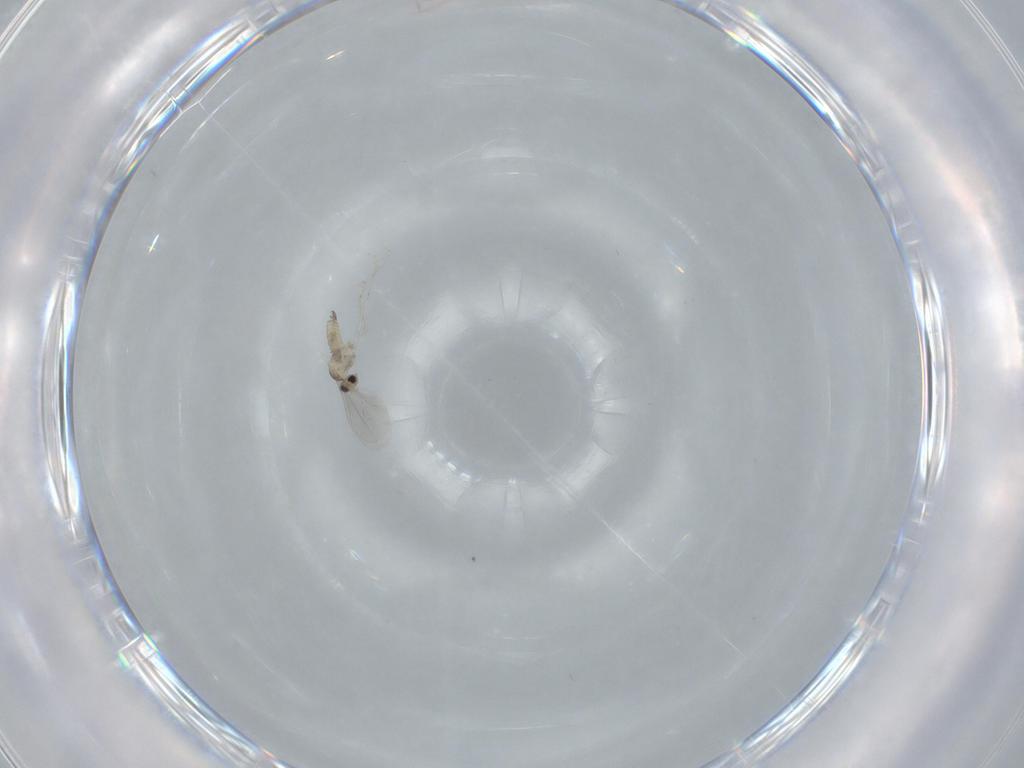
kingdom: Animalia
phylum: Arthropoda
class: Insecta
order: Diptera
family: Cecidomyiidae
